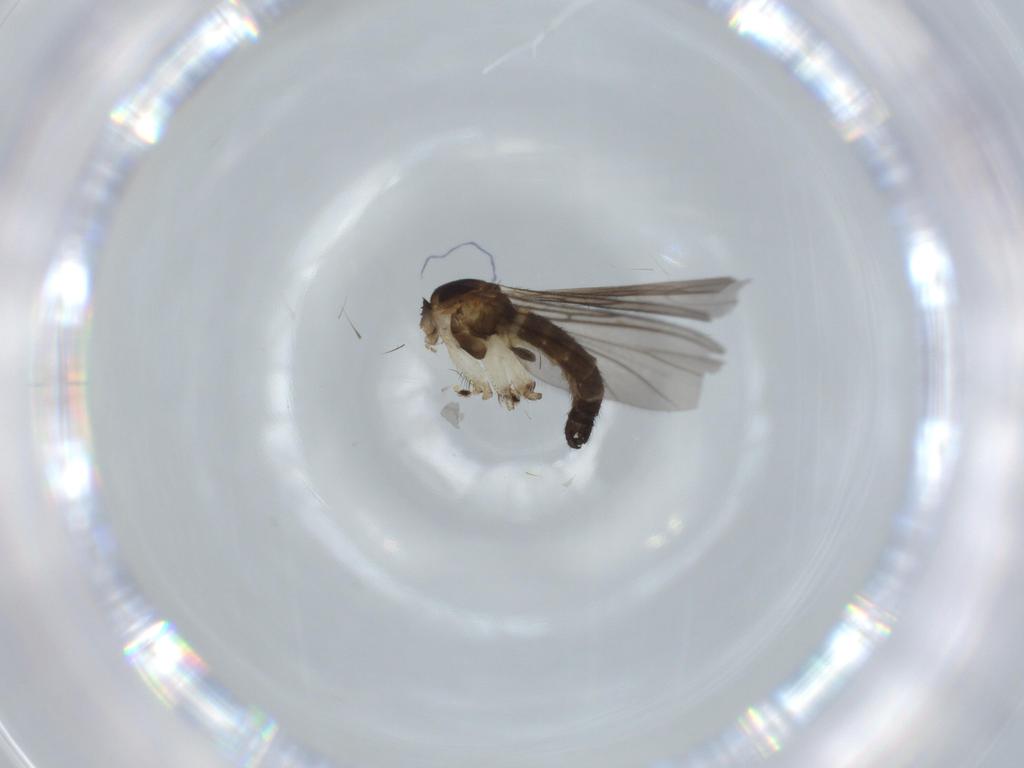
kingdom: Animalia
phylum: Arthropoda
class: Insecta
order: Diptera
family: Sciaridae
